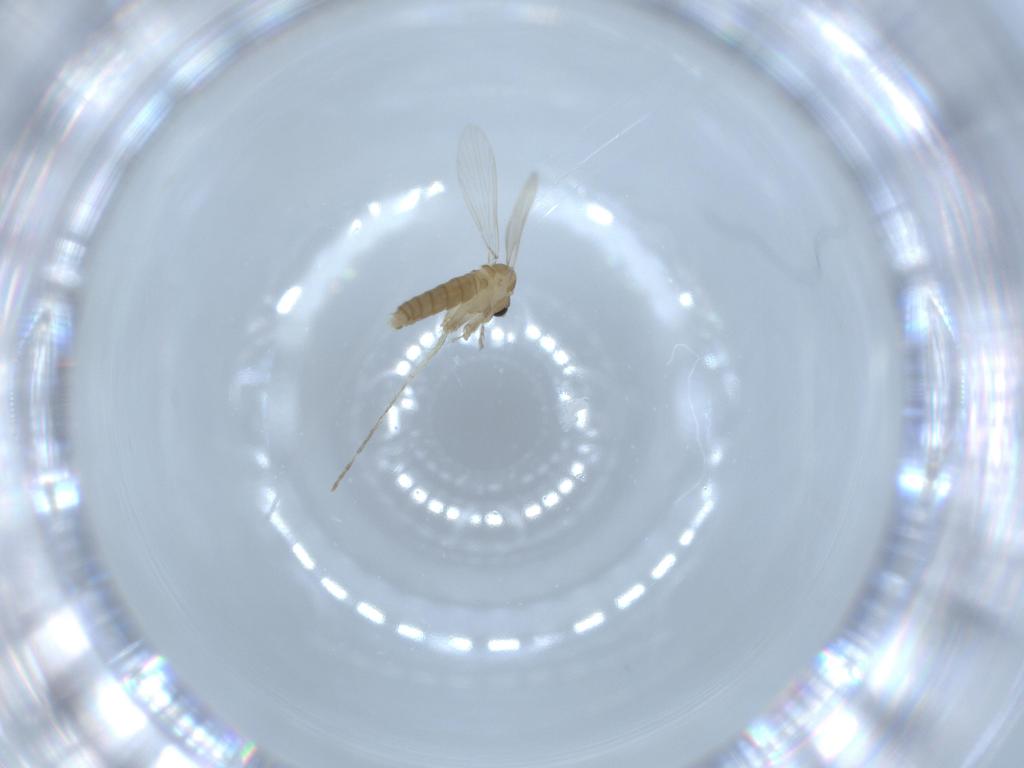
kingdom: Animalia
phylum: Arthropoda
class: Insecta
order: Diptera
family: Psychodidae
